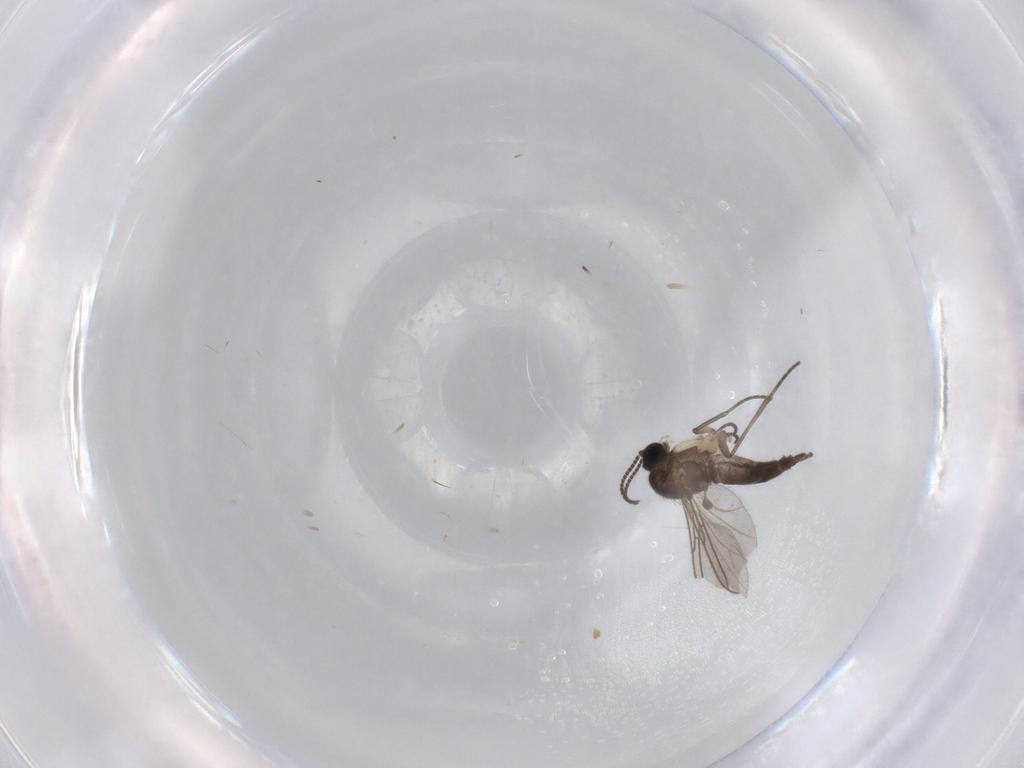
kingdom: Animalia
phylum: Arthropoda
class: Insecta
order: Diptera
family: Sciaridae
